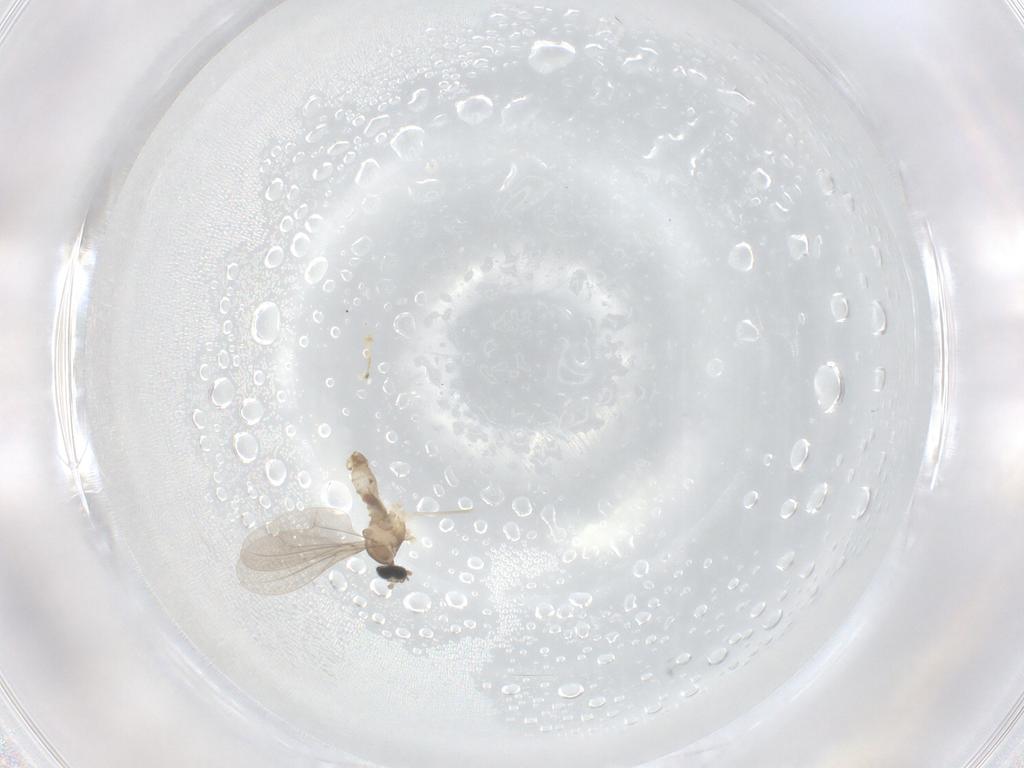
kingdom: Animalia
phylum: Arthropoda
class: Insecta
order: Diptera
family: Cecidomyiidae
